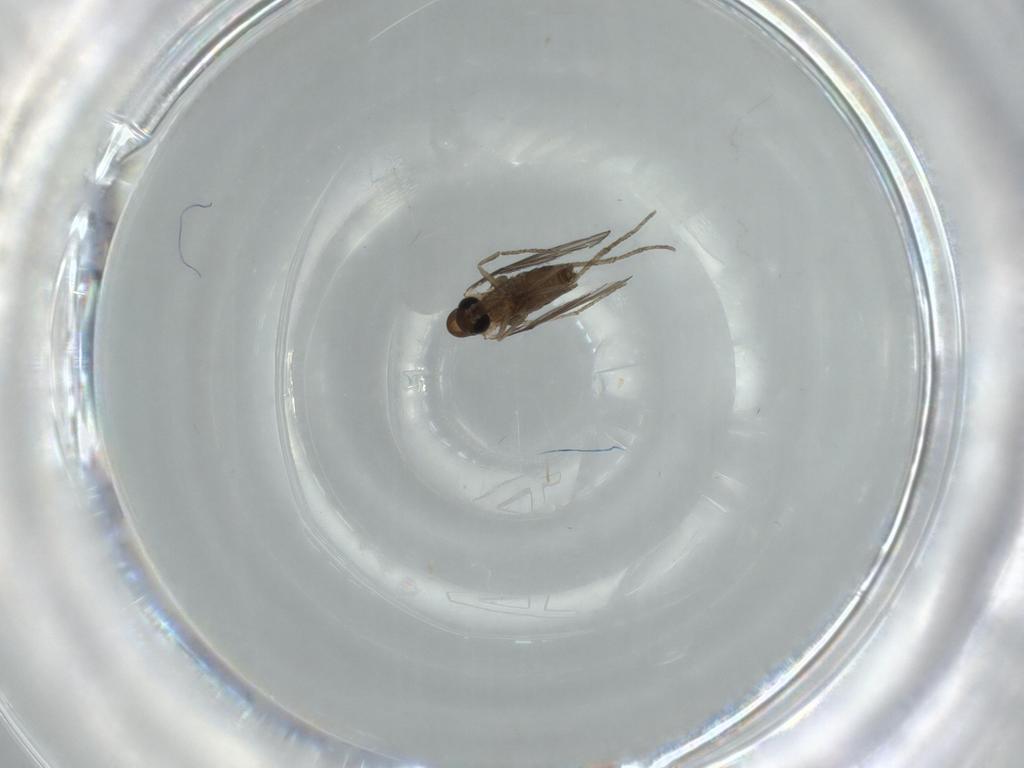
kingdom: Animalia
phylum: Arthropoda
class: Insecta
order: Diptera
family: Psychodidae
